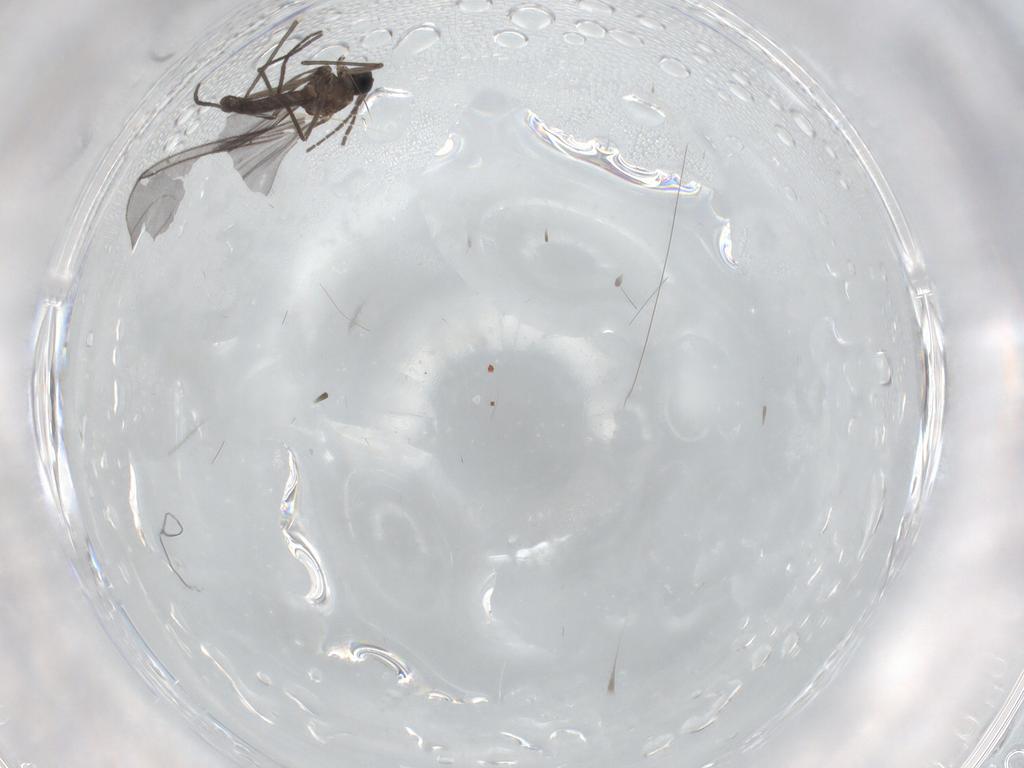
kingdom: Animalia
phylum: Arthropoda
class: Insecta
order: Diptera
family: Sciaridae
